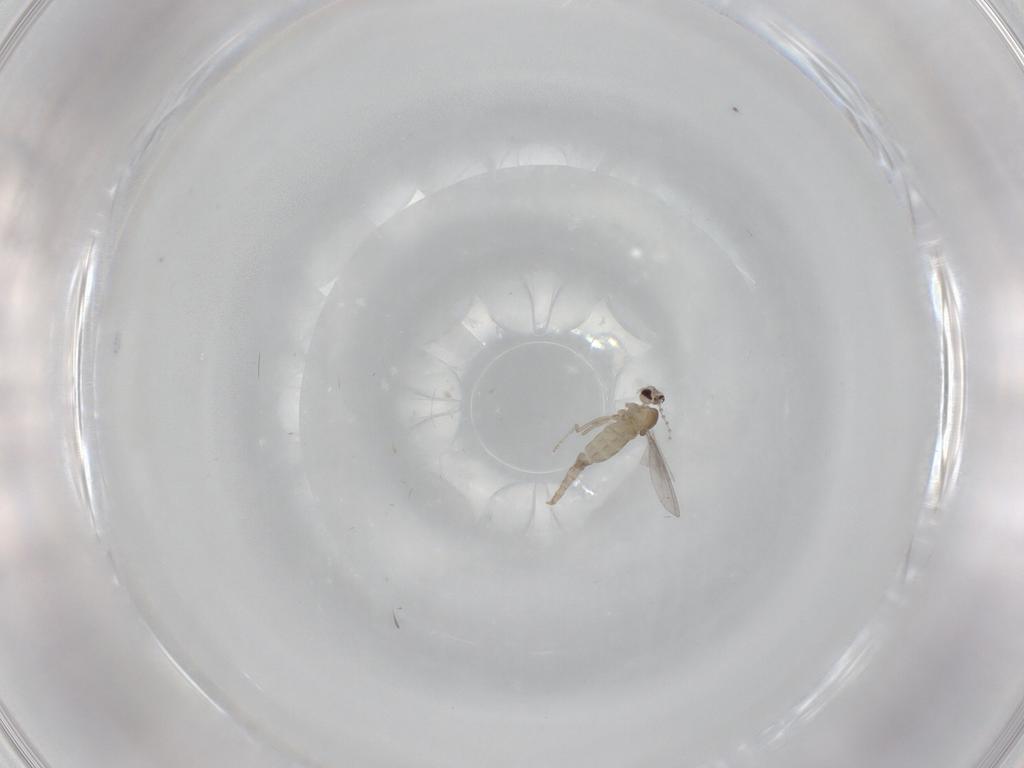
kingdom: Animalia
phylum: Arthropoda
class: Insecta
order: Diptera
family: Cecidomyiidae
